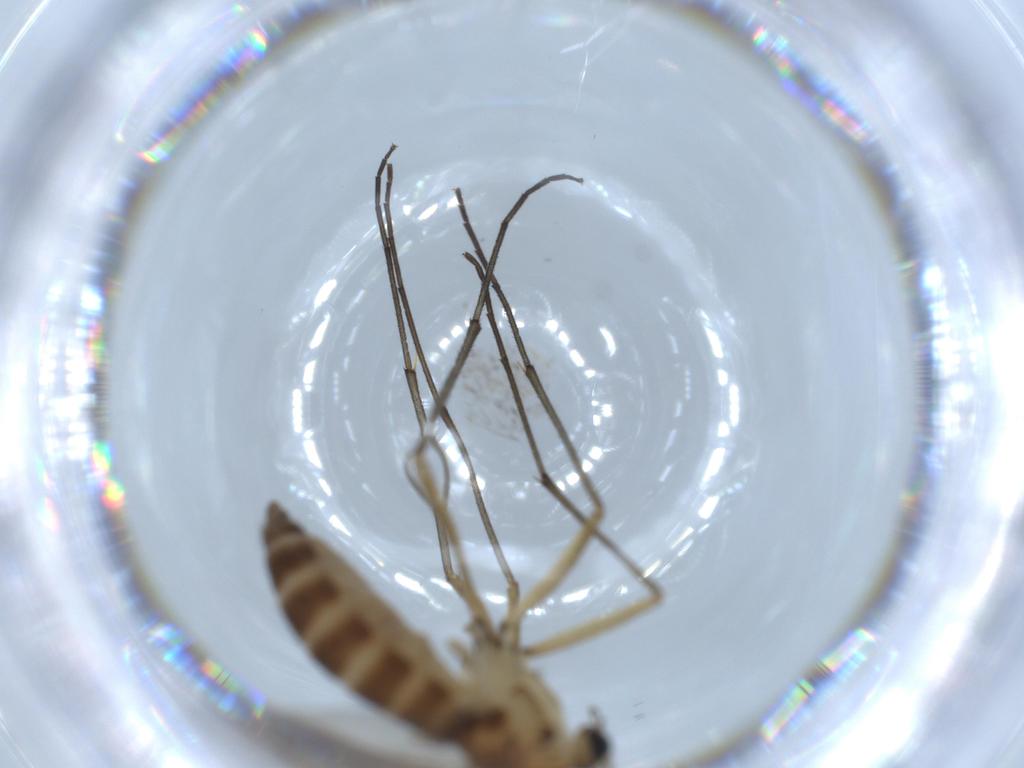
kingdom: Animalia
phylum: Arthropoda
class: Insecta
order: Diptera
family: Sciaridae
